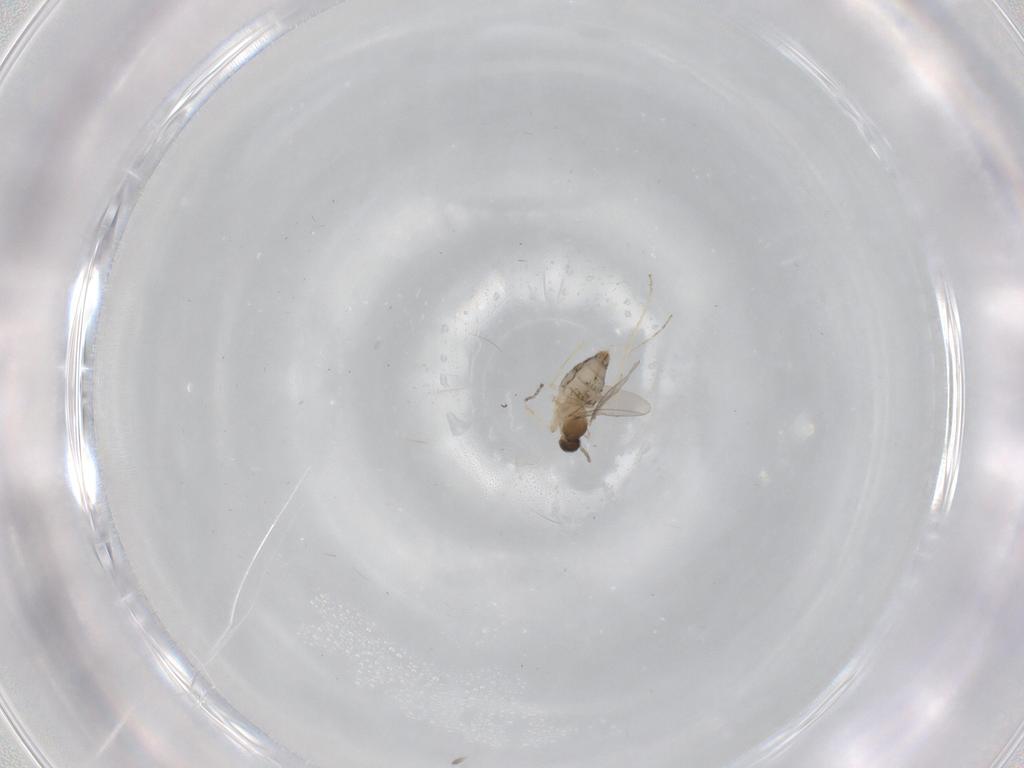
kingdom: Animalia
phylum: Arthropoda
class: Insecta
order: Diptera
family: Cecidomyiidae
